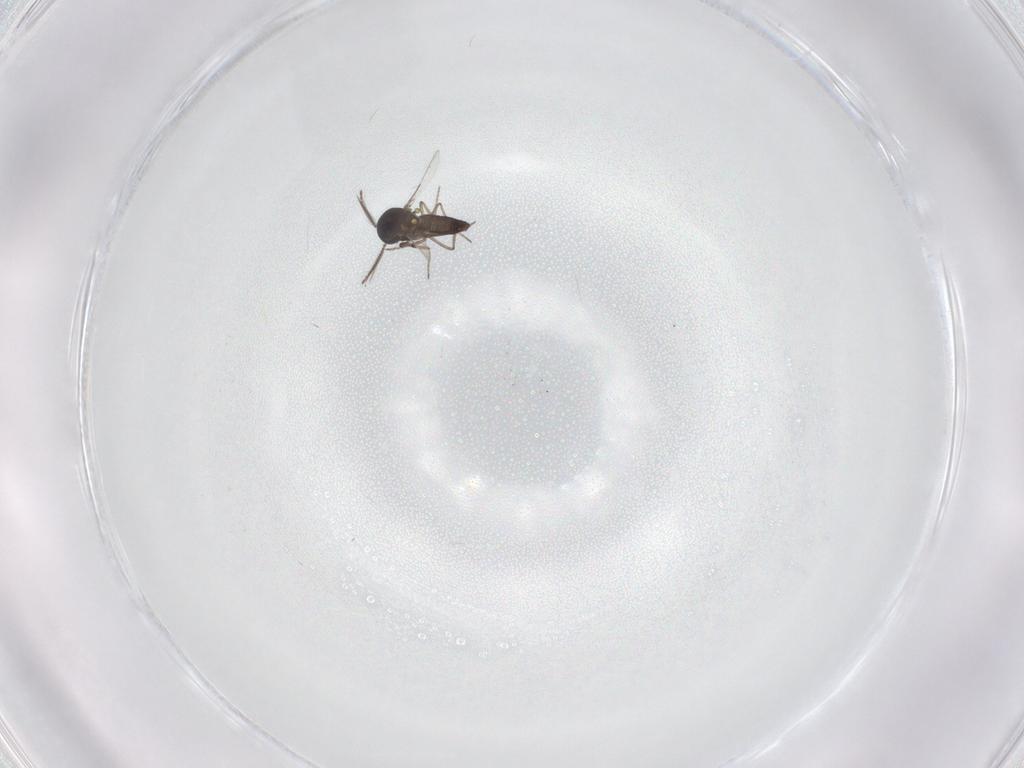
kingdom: Animalia
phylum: Arthropoda
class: Insecta
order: Diptera
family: Ceratopogonidae
